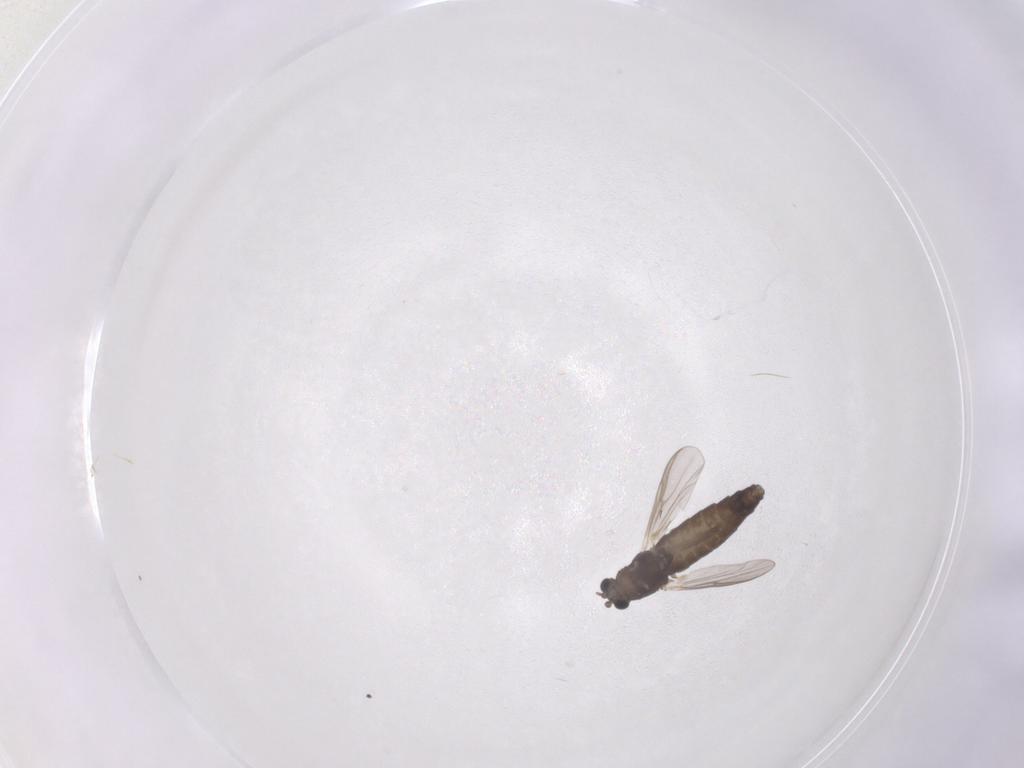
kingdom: Animalia
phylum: Arthropoda
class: Insecta
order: Diptera
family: Chironomidae
